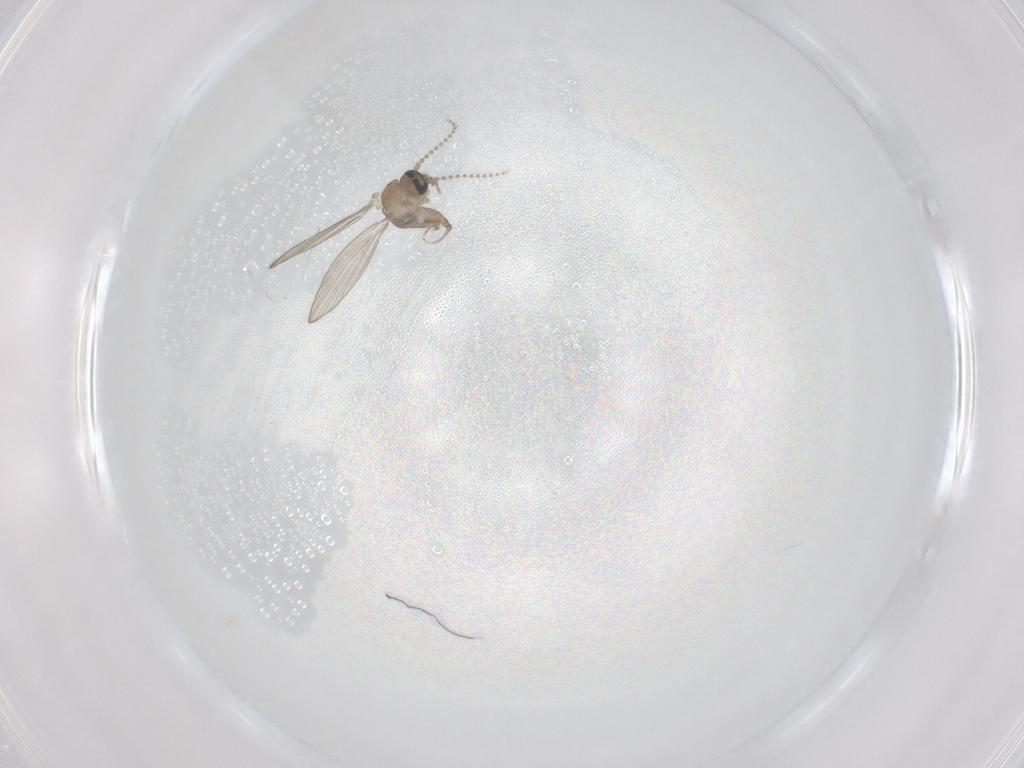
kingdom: Animalia
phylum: Arthropoda
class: Insecta
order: Diptera
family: Psychodidae
